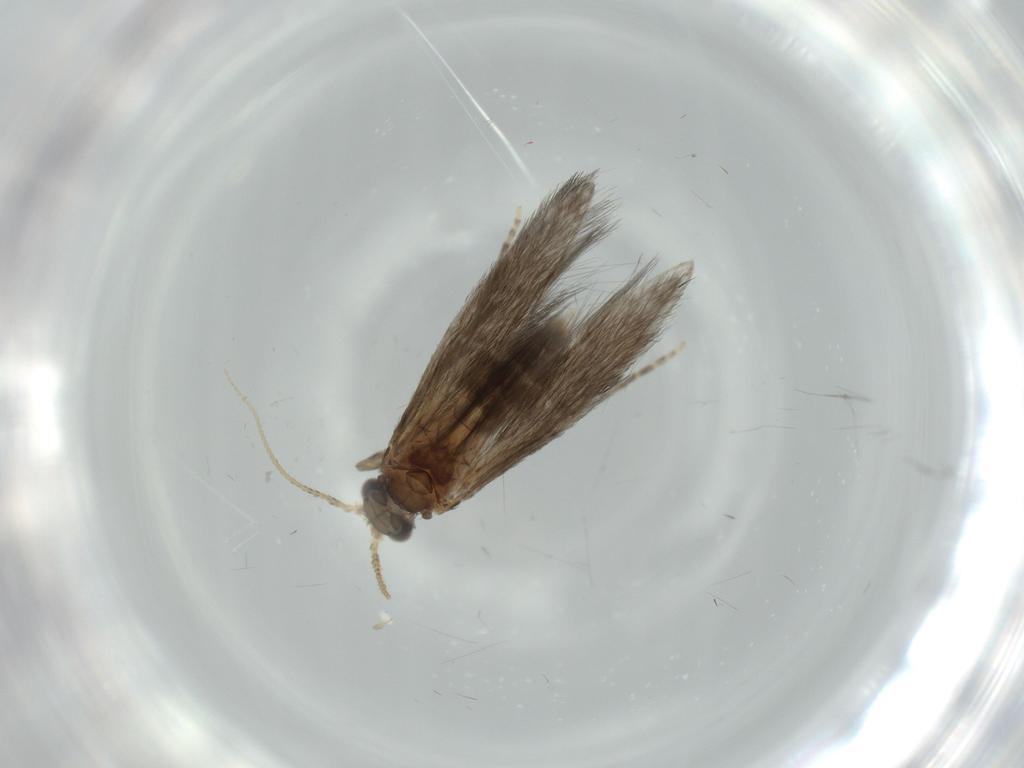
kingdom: Animalia
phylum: Arthropoda
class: Insecta
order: Trichoptera
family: Hydroptilidae
